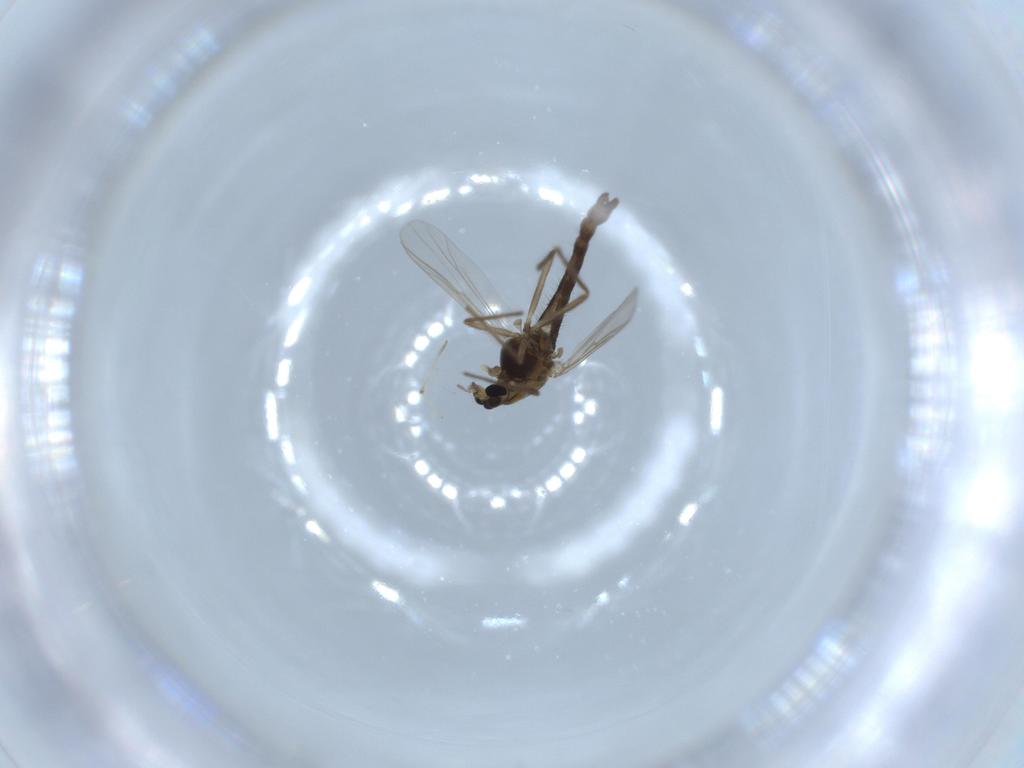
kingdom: Animalia
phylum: Arthropoda
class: Insecta
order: Diptera
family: Chironomidae
